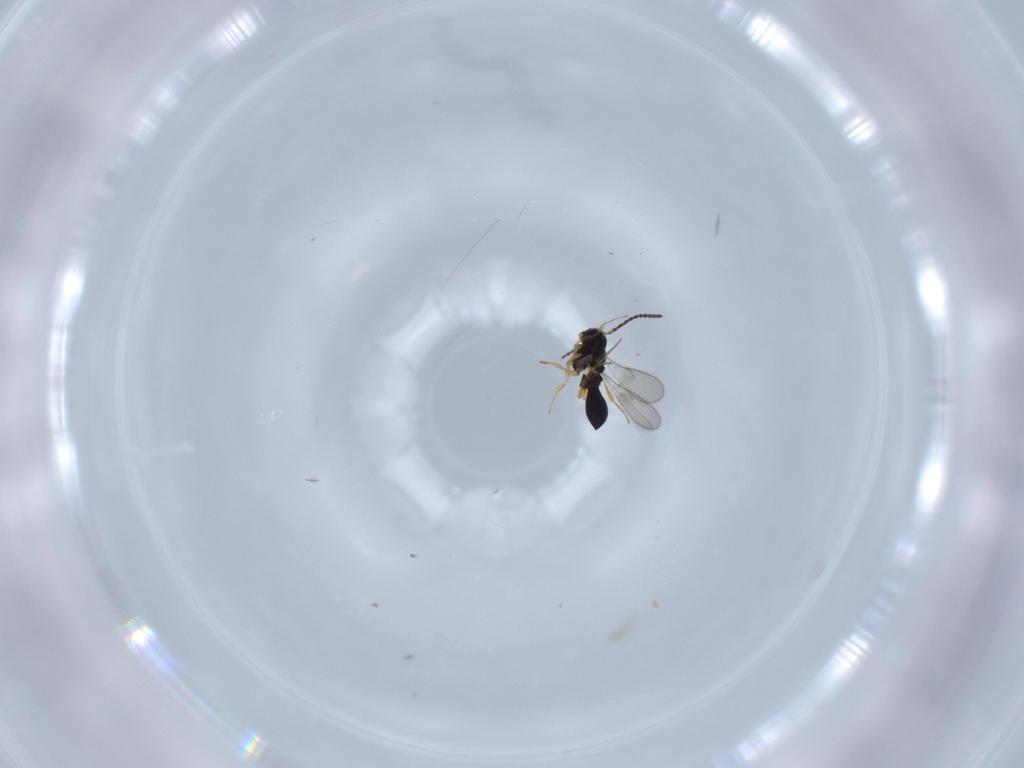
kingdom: Animalia
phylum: Arthropoda
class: Insecta
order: Hymenoptera
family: Scelionidae
